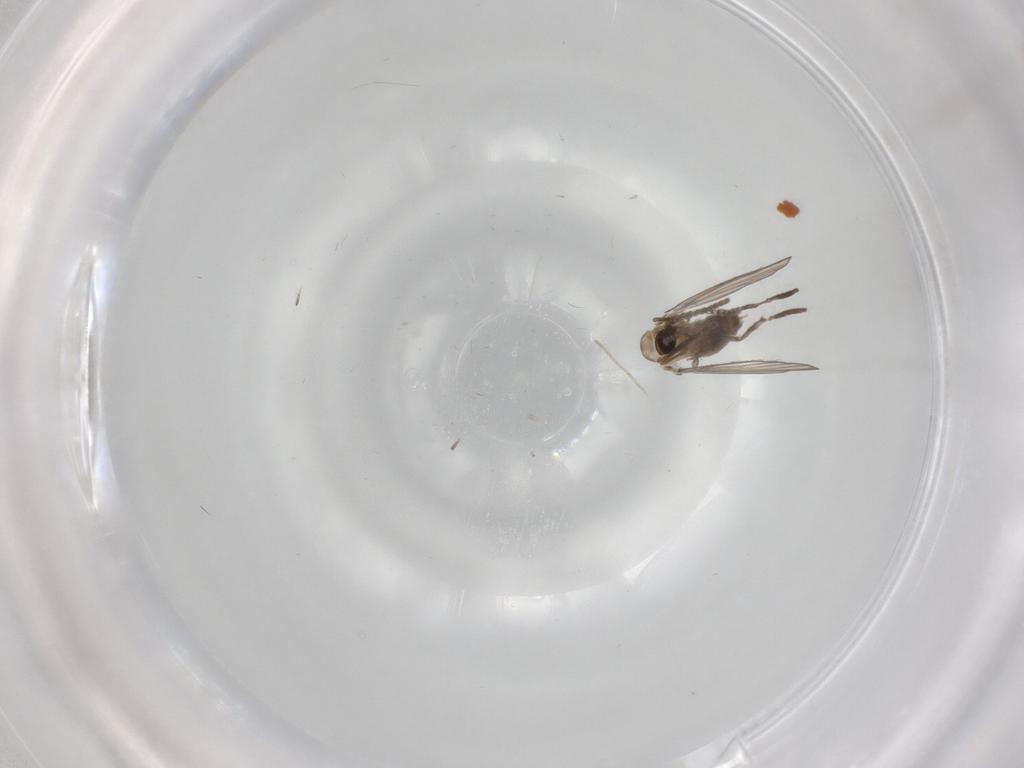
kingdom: Animalia
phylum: Arthropoda
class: Insecta
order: Diptera
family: Psychodidae
